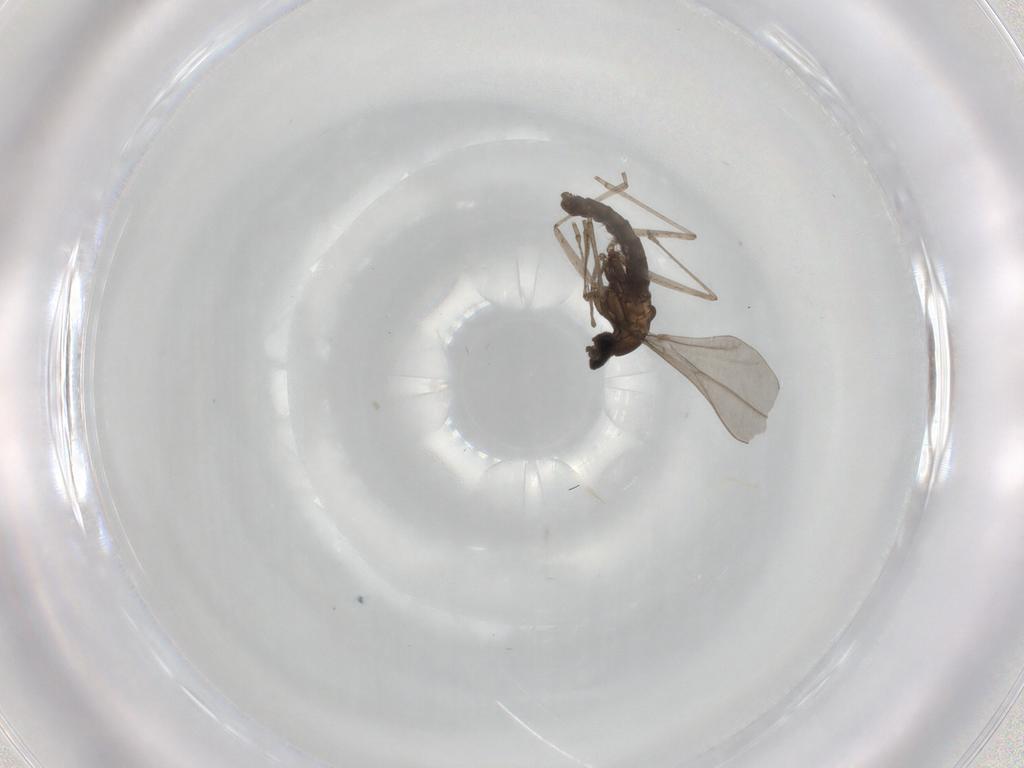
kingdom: Animalia
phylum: Arthropoda
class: Insecta
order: Diptera
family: Cecidomyiidae
